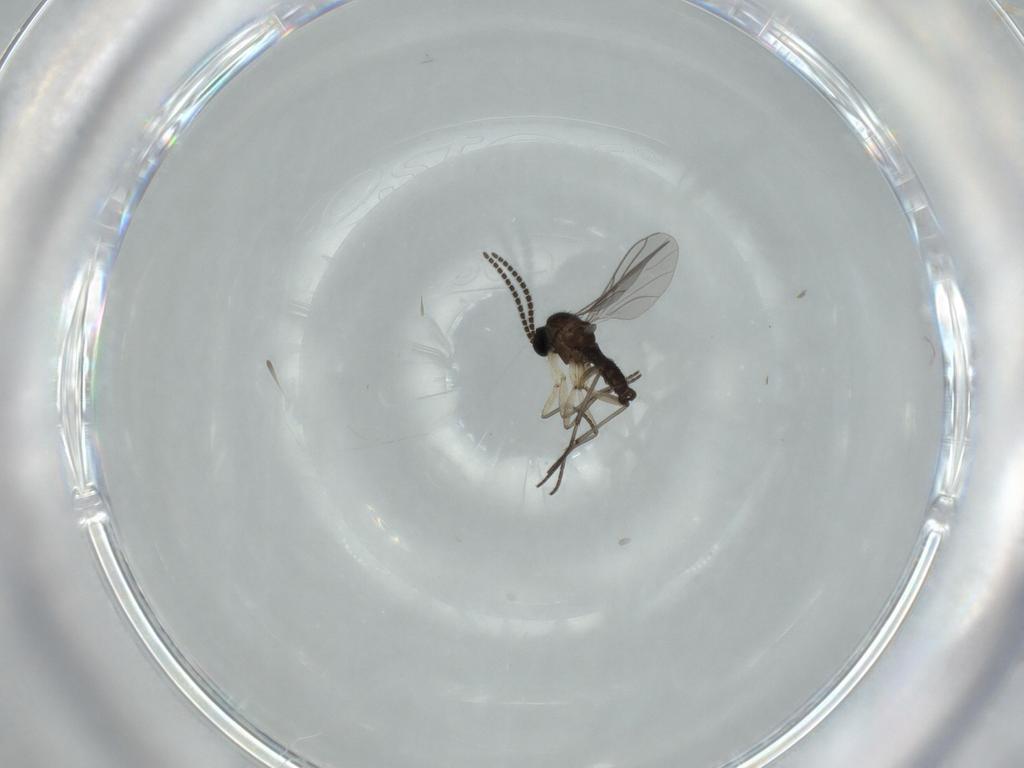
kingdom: Animalia
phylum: Arthropoda
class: Insecta
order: Diptera
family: Sciaridae
